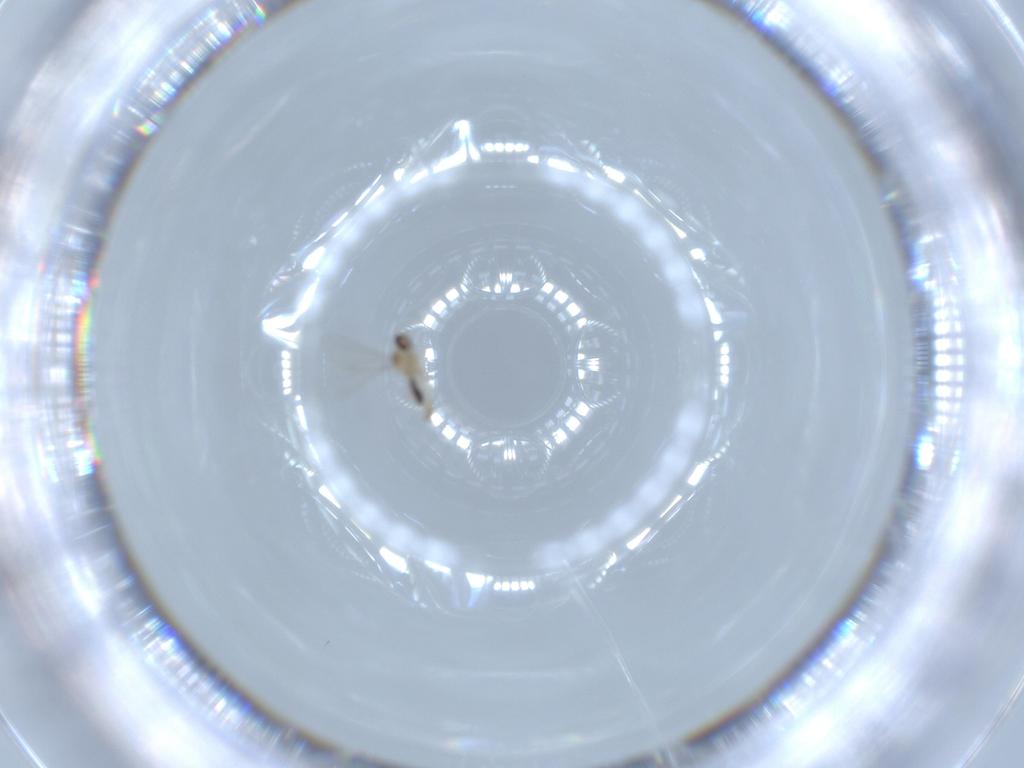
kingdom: Animalia
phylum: Arthropoda
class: Insecta
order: Diptera
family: Cecidomyiidae
